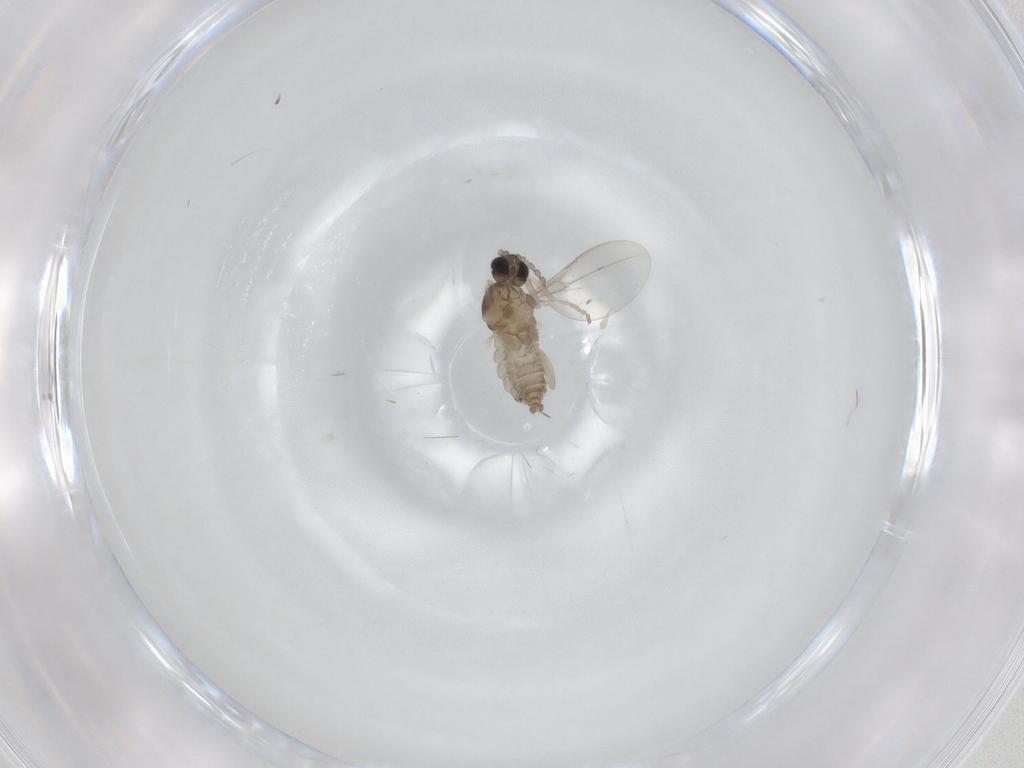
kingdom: Animalia
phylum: Arthropoda
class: Insecta
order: Diptera
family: Cecidomyiidae
